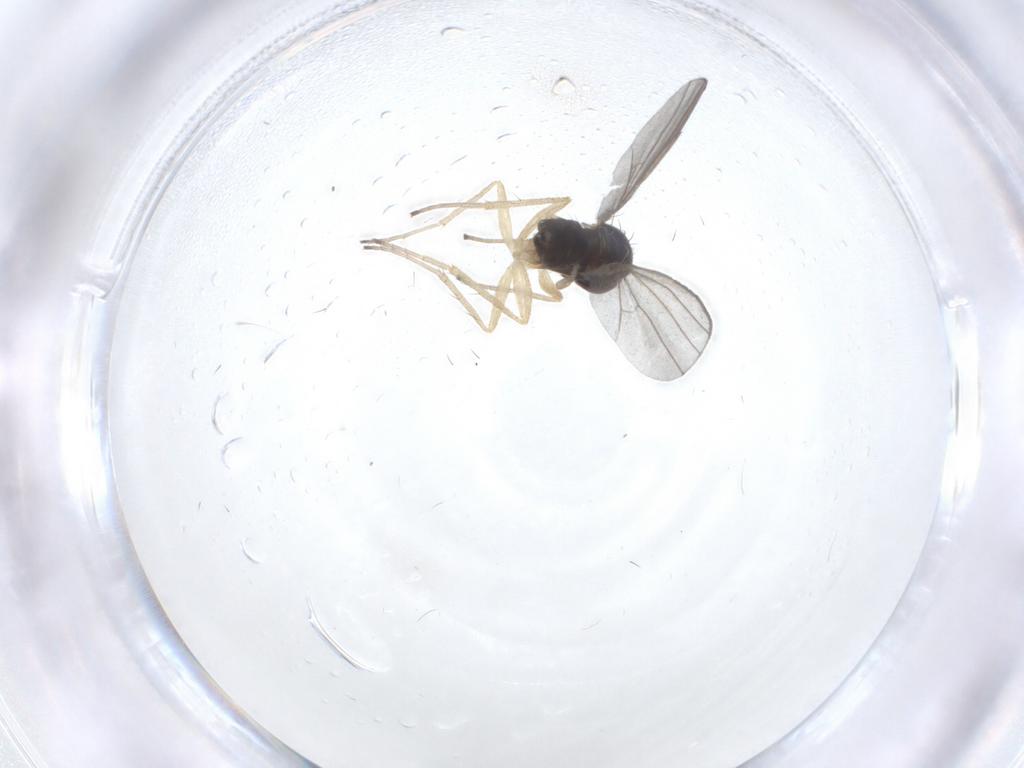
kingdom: Animalia
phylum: Arthropoda
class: Insecta
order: Diptera
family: Dolichopodidae
